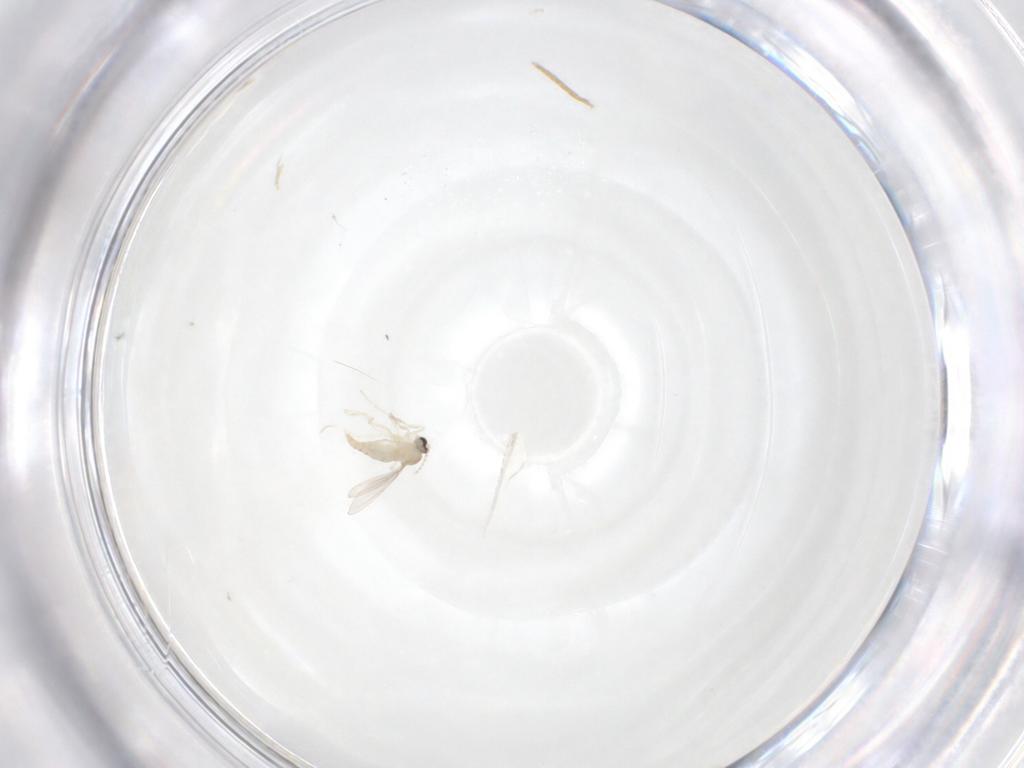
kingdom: Animalia
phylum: Arthropoda
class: Insecta
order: Diptera
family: Cecidomyiidae
